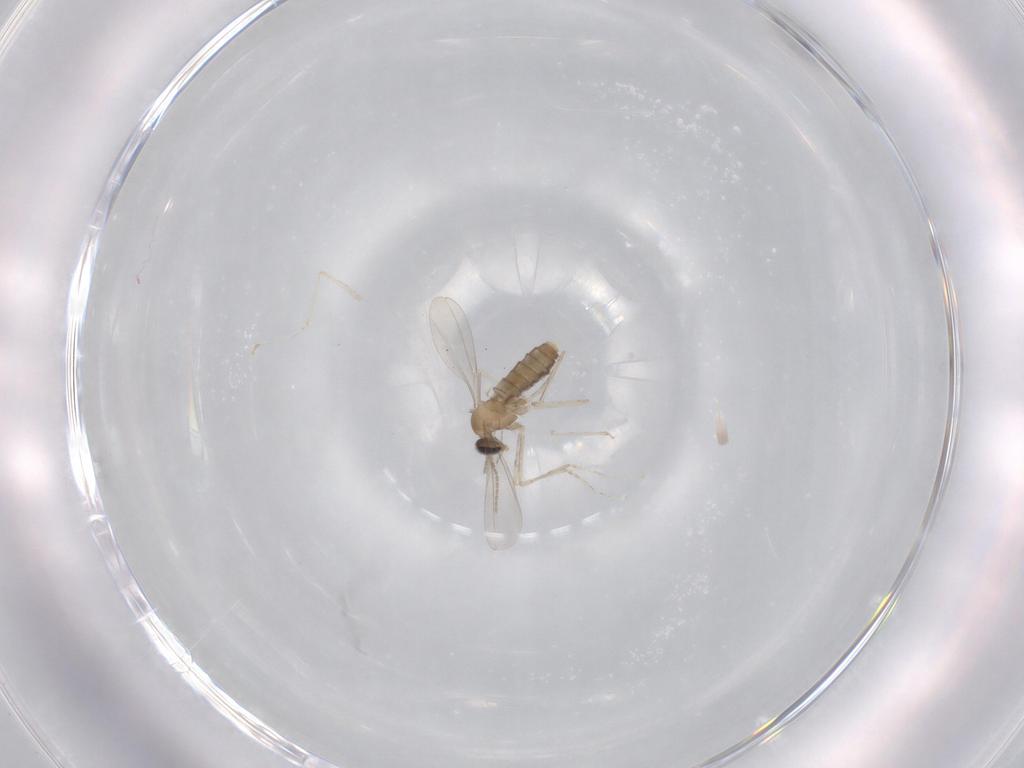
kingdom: Animalia
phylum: Arthropoda
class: Insecta
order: Diptera
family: Cecidomyiidae
